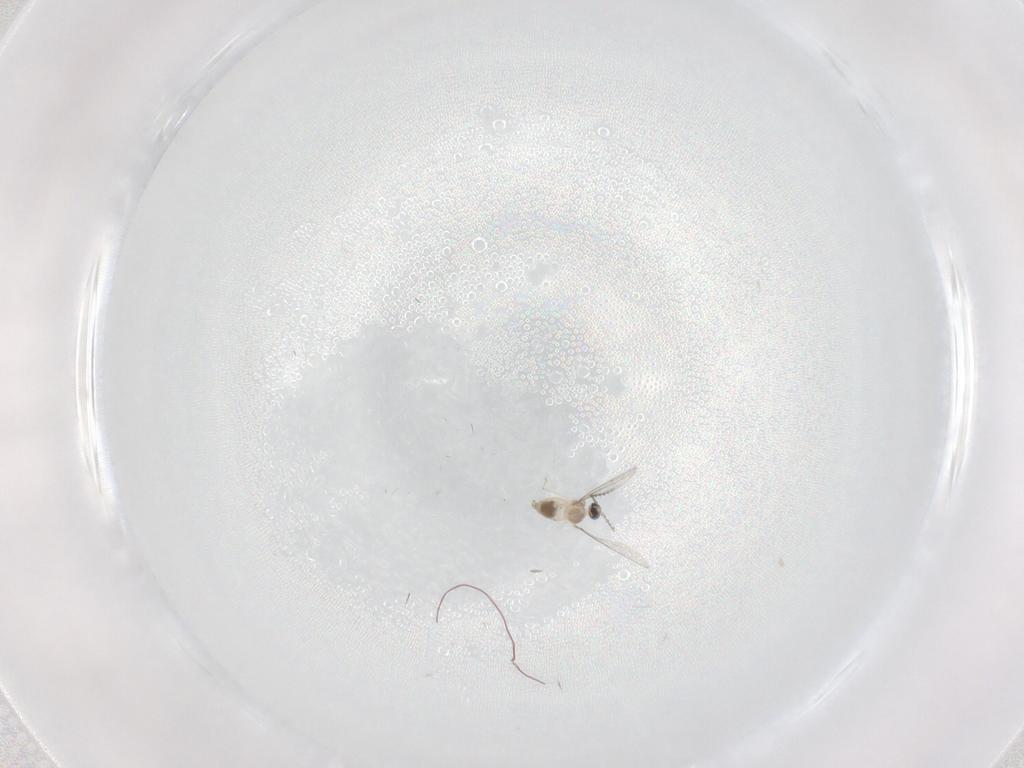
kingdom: Animalia
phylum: Arthropoda
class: Insecta
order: Diptera
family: Cecidomyiidae
